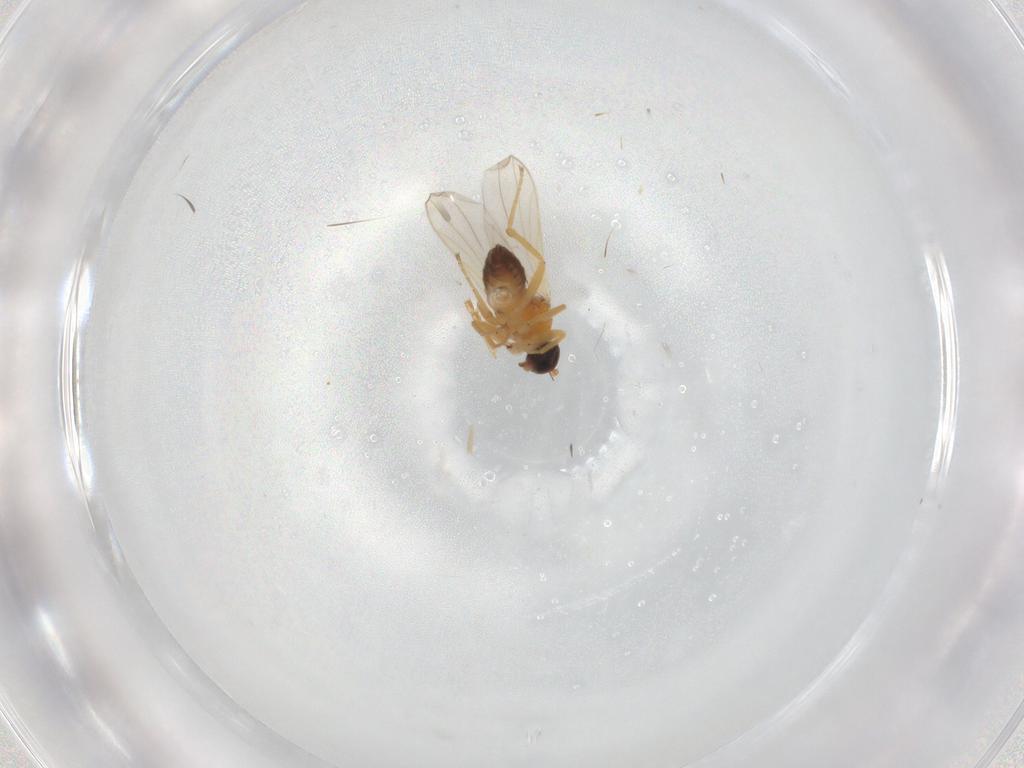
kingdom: Animalia
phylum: Arthropoda
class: Insecta
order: Diptera
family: Hybotidae
